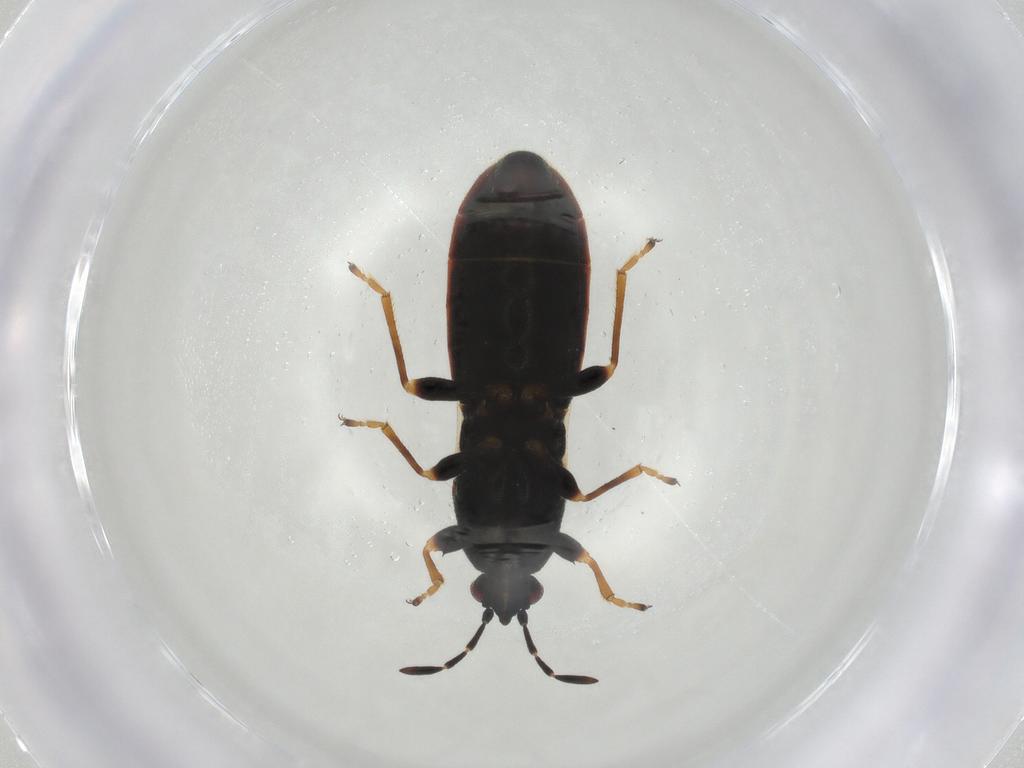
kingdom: Animalia
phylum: Arthropoda
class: Insecta
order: Hemiptera
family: Blissidae
